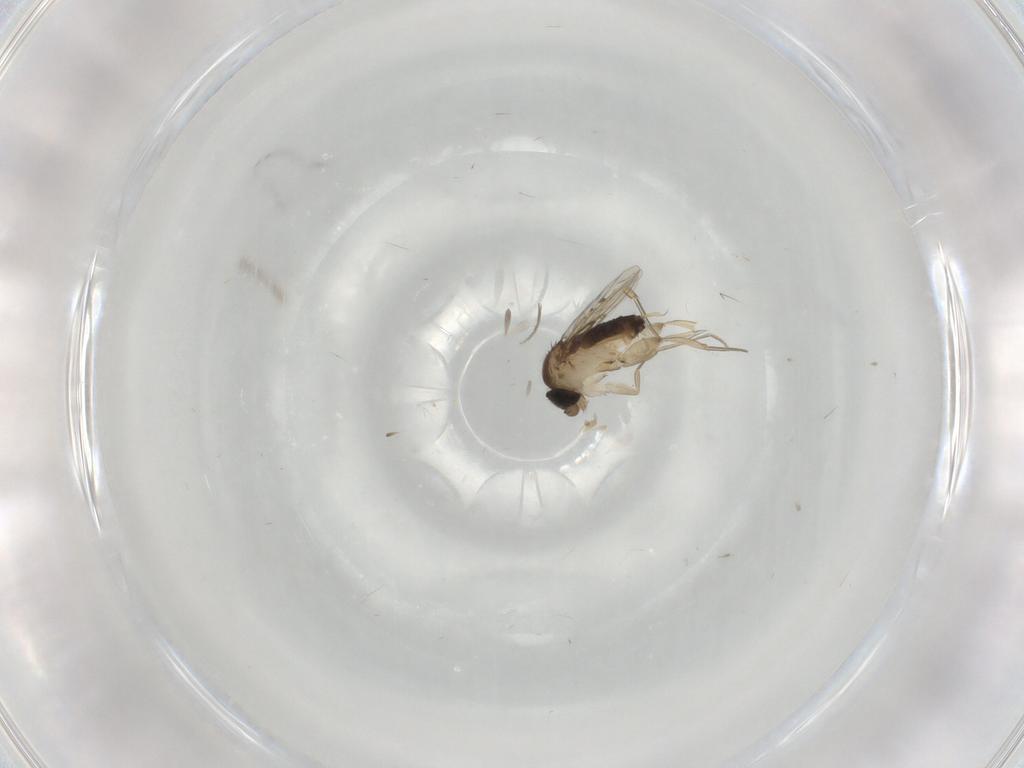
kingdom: Animalia
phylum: Arthropoda
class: Insecta
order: Diptera
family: Phoridae
